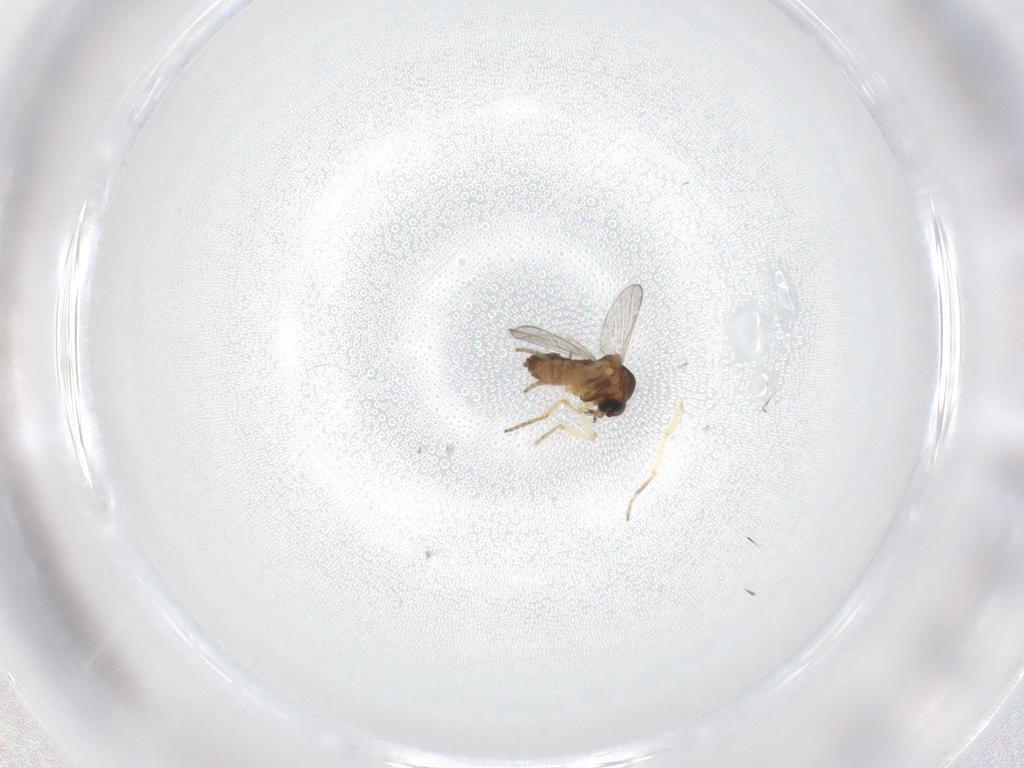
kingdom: Animalia
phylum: Arthropoda
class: Insecta
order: Diptera
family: Ceratopogonidae
